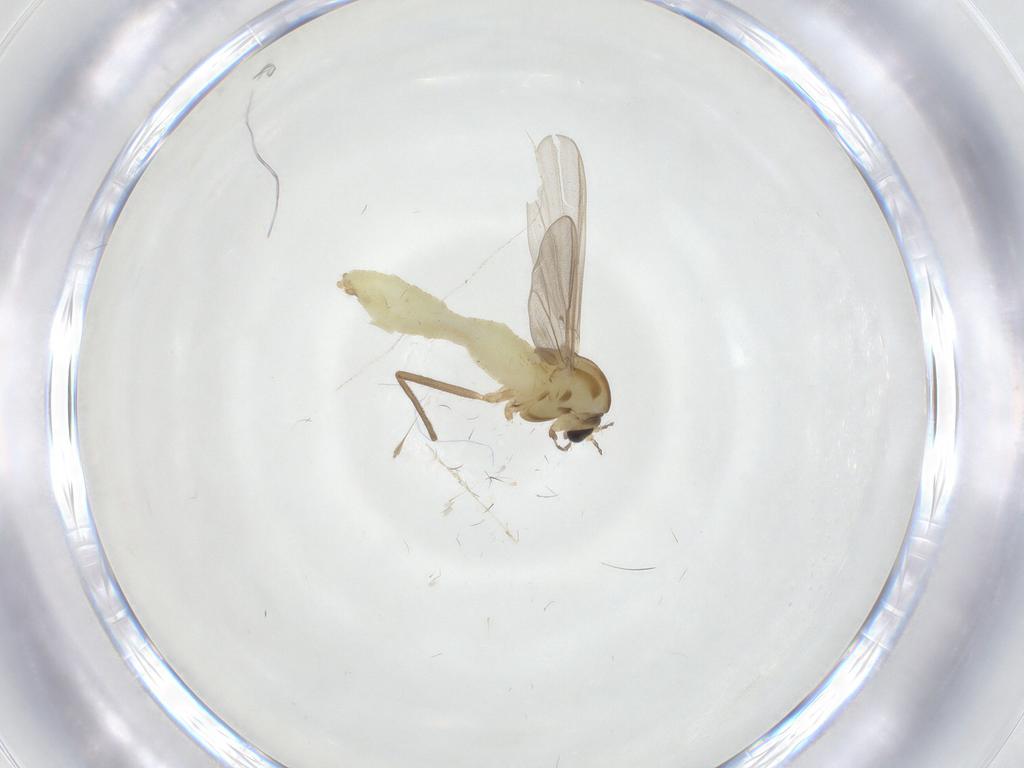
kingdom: Animalia
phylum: Arthropoda
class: Insecta
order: Diptera
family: Chironomidae
